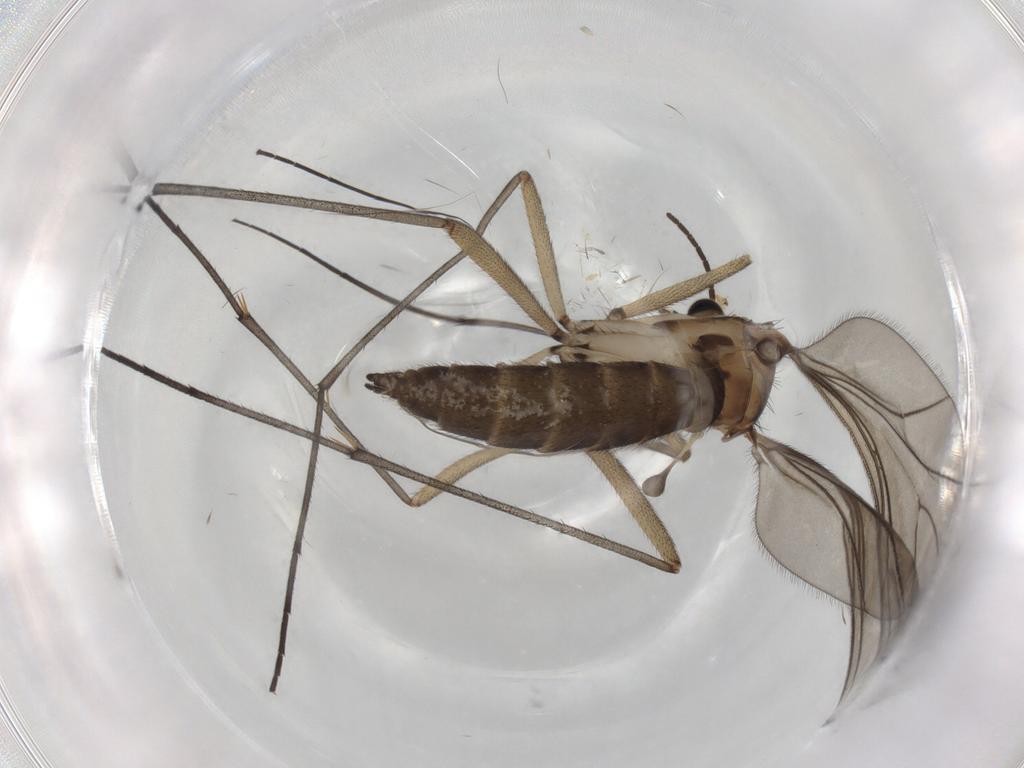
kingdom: Animalia
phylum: Arthropoda
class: Insecta
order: Diptera
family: Sciaridae
